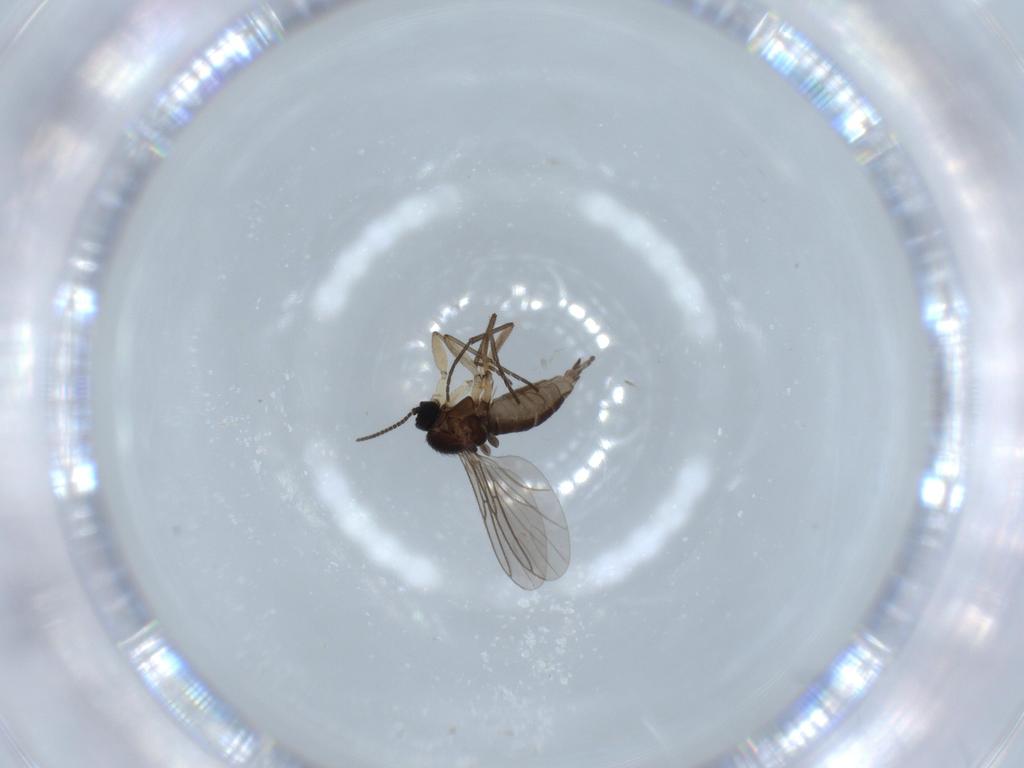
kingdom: Animalia
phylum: Arthropoda
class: Insecta
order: Diptera
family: Sciaridae
